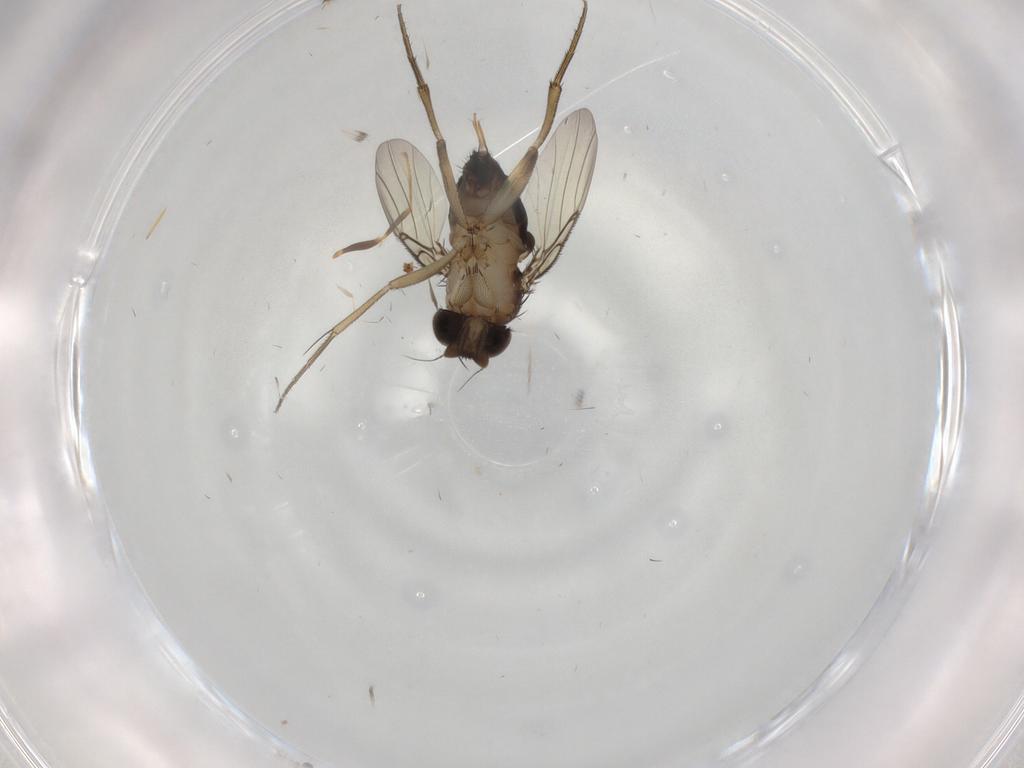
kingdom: Animalia
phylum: Arthropoda
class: Insecta
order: Diptera
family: Phoridae
